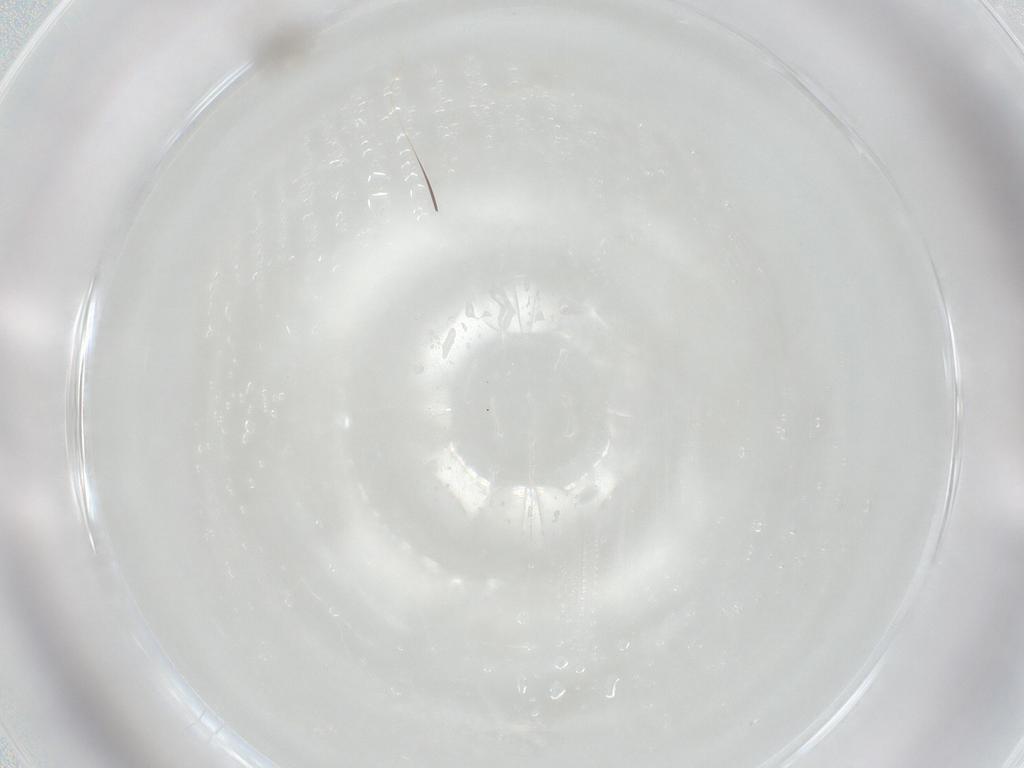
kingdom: Animalia
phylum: Arthropoda
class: Insecta
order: Hymenoptera
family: Mymaridae
